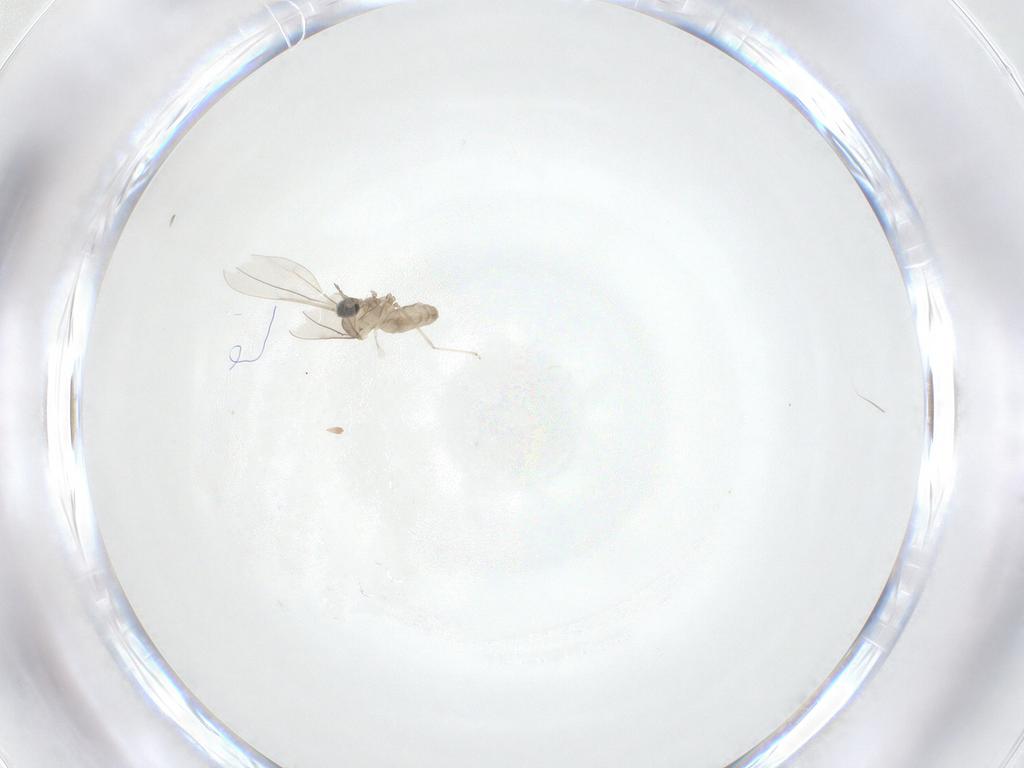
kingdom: Animalia
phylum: Arthropoda
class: Insecta
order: Diptera
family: Cecidomyiidae
